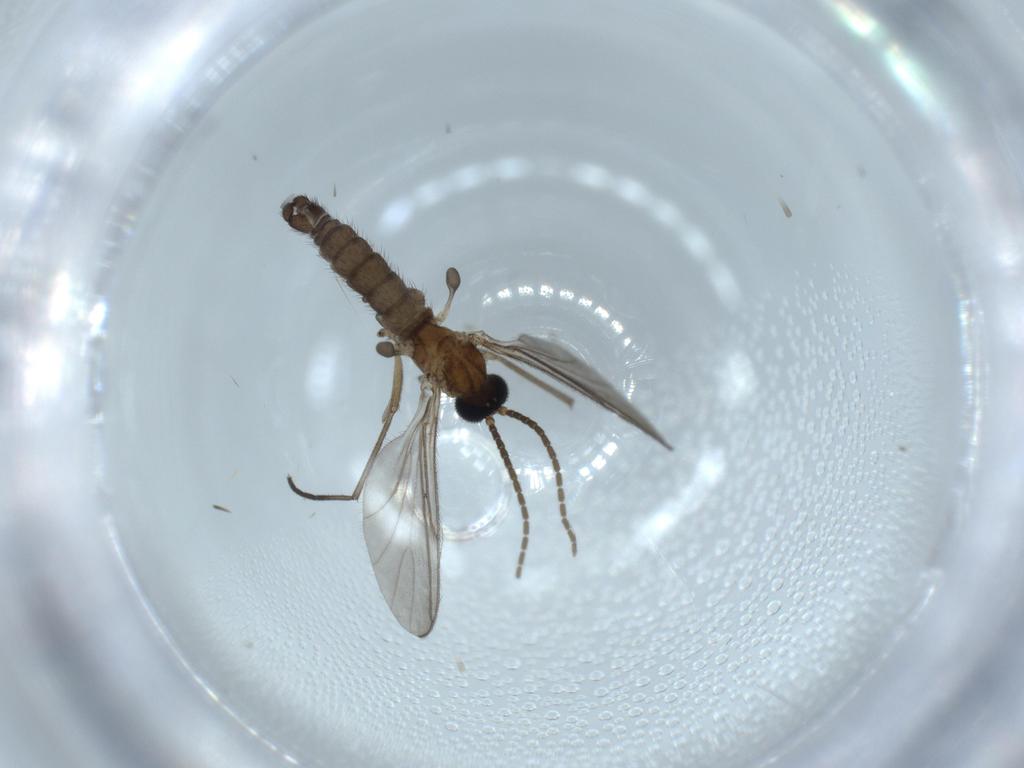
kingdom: Animalia
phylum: Arthropoda
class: Insecta
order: Diptera
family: Sciaridae
